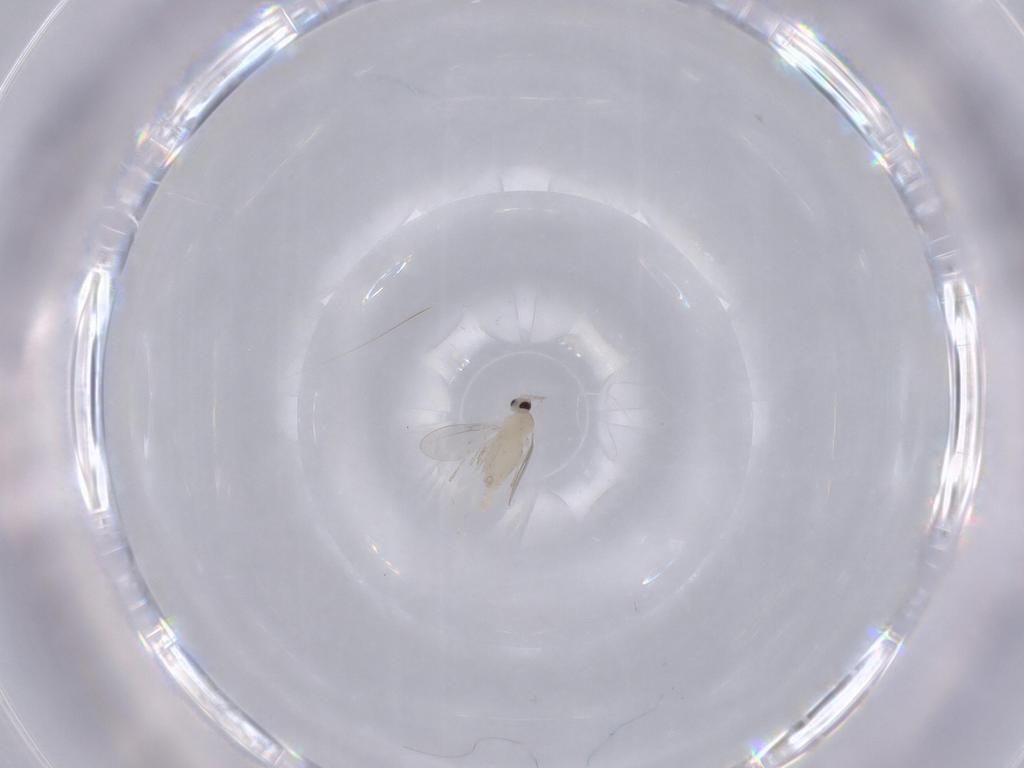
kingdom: Animalia
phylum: Arthropoda
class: Insecta
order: Diptera
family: Cecidomyiidae
